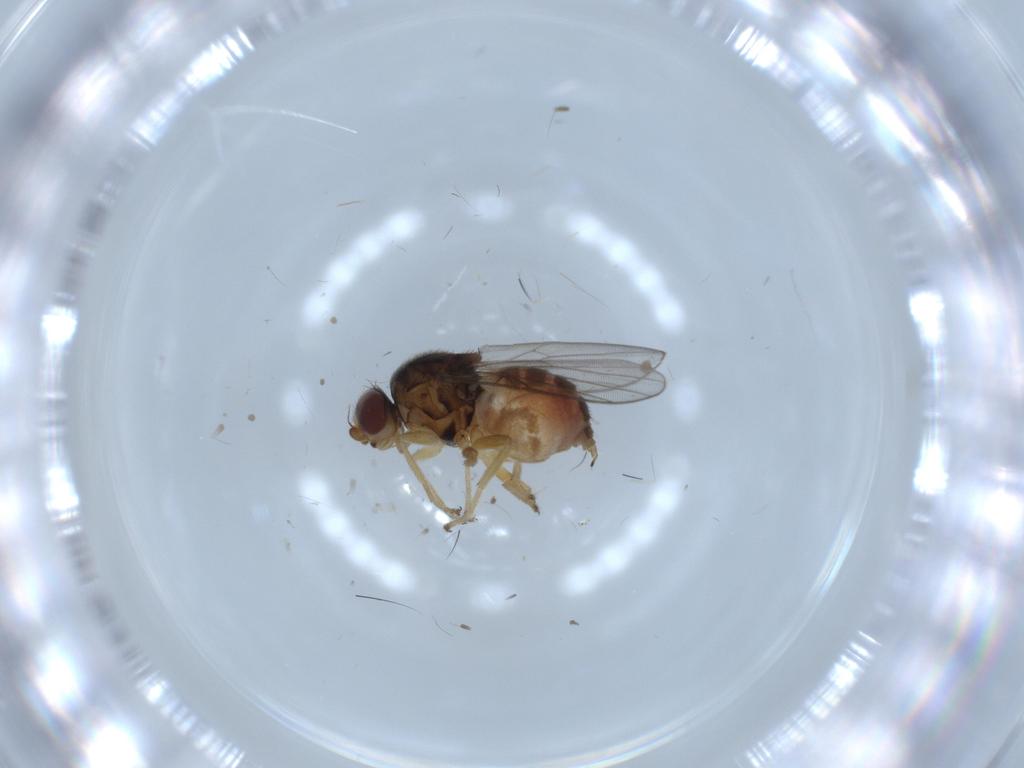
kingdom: Animalia
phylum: Arthropoda
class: Insecta
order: Diptera
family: Chloropidae
